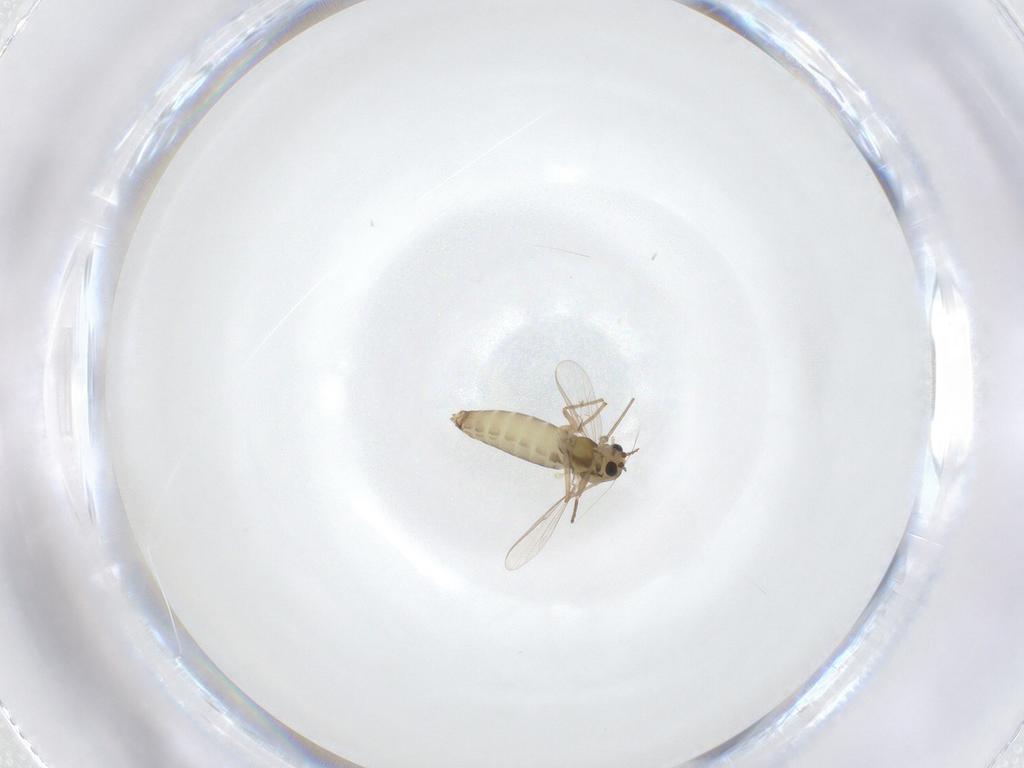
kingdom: Animalia
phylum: Arthropoda
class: Insecta
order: Diptera
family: Chironomidae
